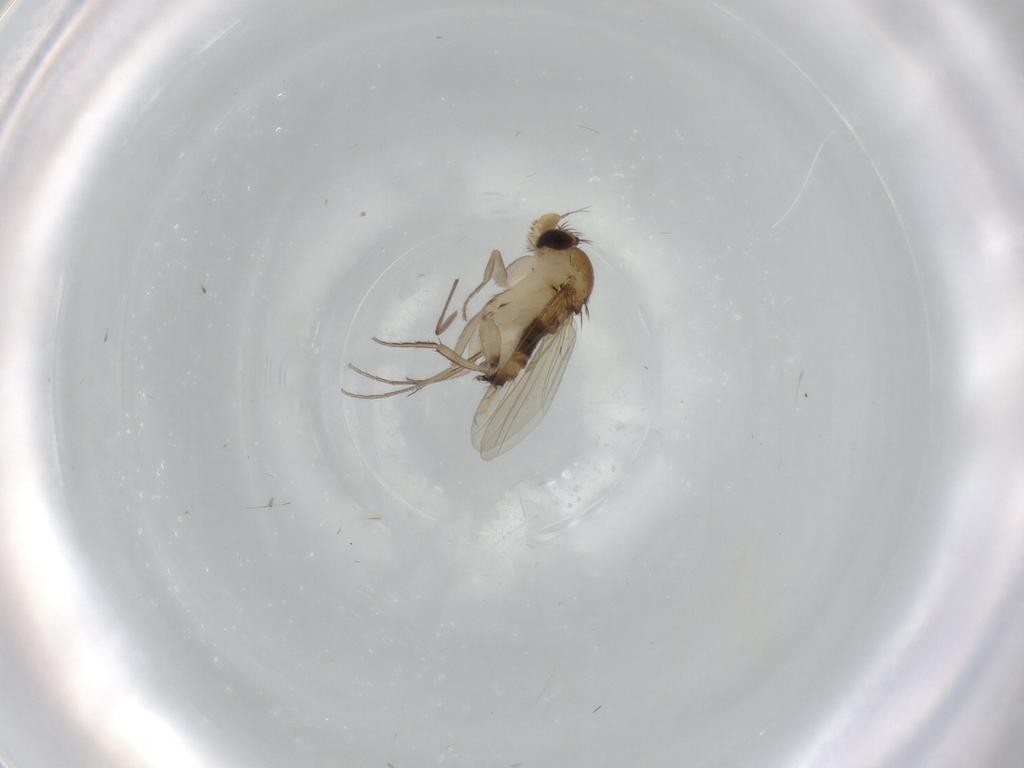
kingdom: Animalia
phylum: Arthropoda
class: Insecta
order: Diptera
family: Phoridae
